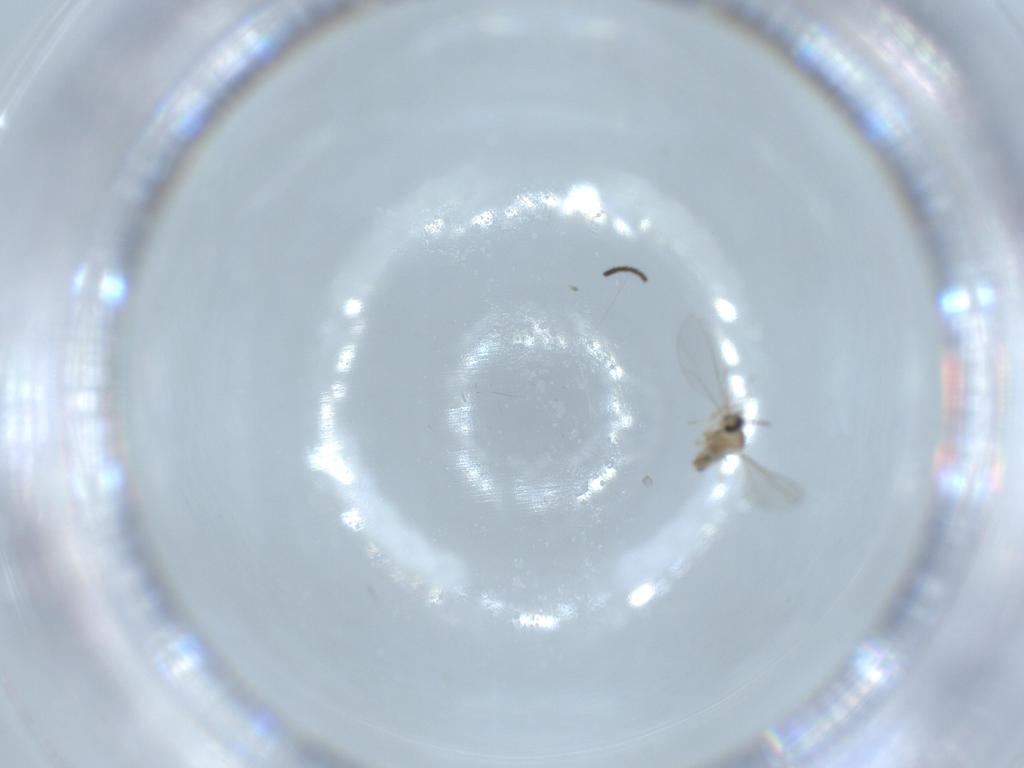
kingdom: Animalia
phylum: Arthropoda
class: Insecta
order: Diptera
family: Cecidomyiidae
